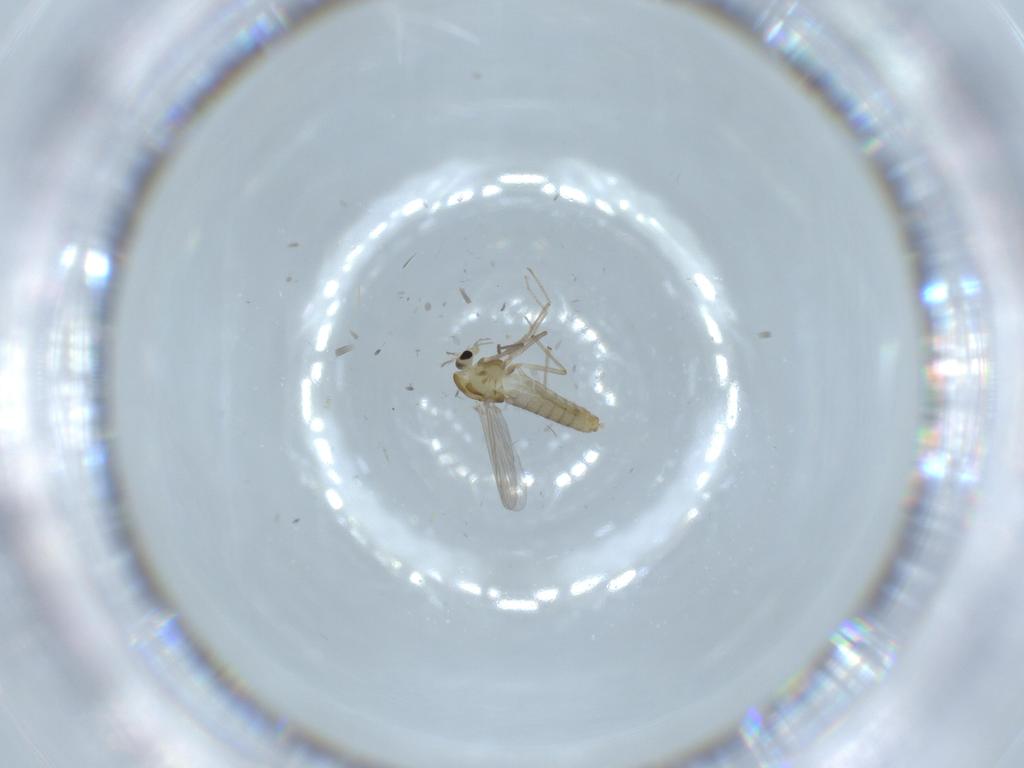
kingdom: Animalia
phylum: Arthropoda
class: Insecta
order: Diptera
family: Chironomidae
